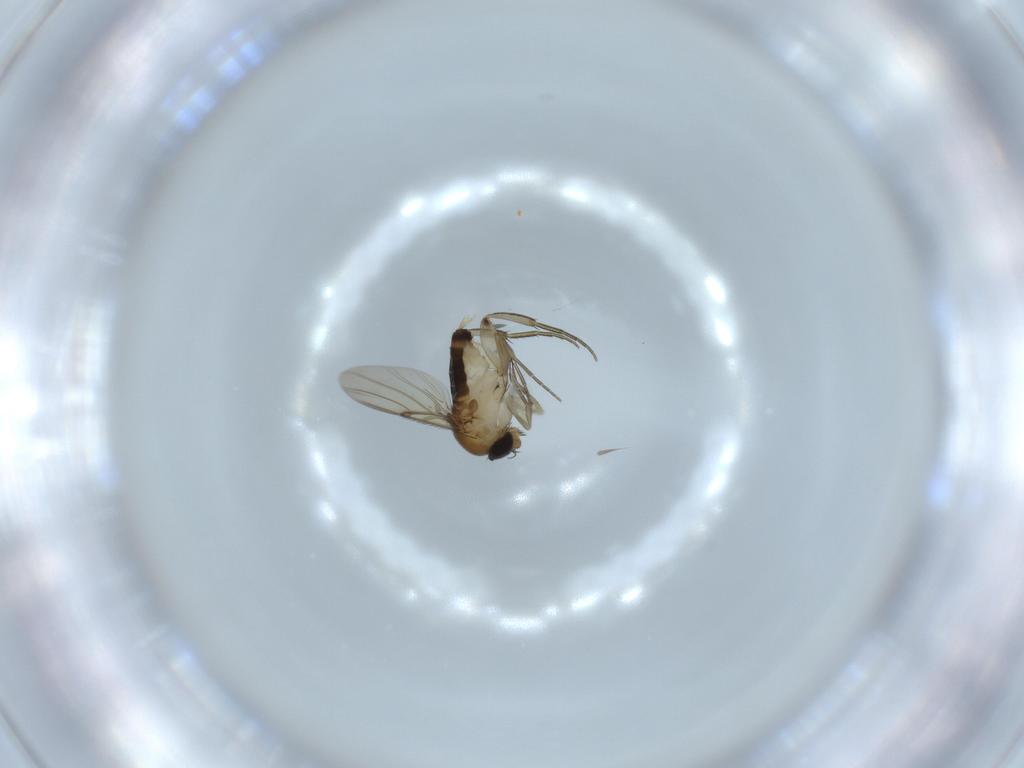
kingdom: Animalia
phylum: Arthropoda
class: Insecta
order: Diptera
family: Phoridae
